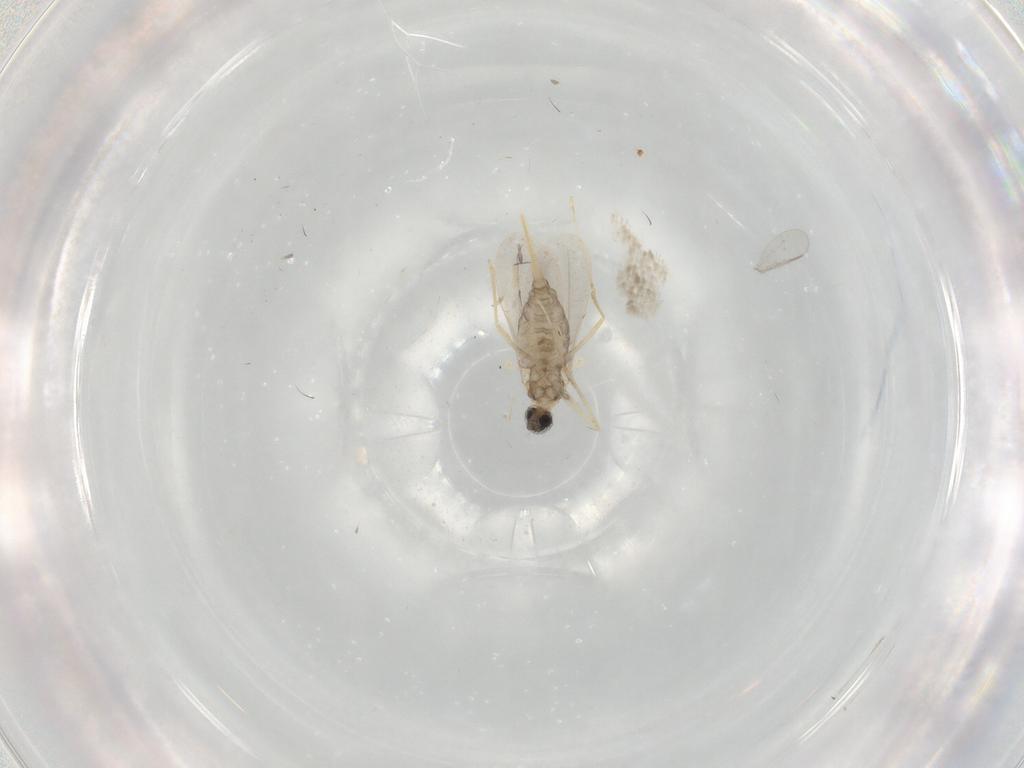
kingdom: Animalia
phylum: Arthropoda
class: Insecta
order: Diptera
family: Cecidomyiidae
